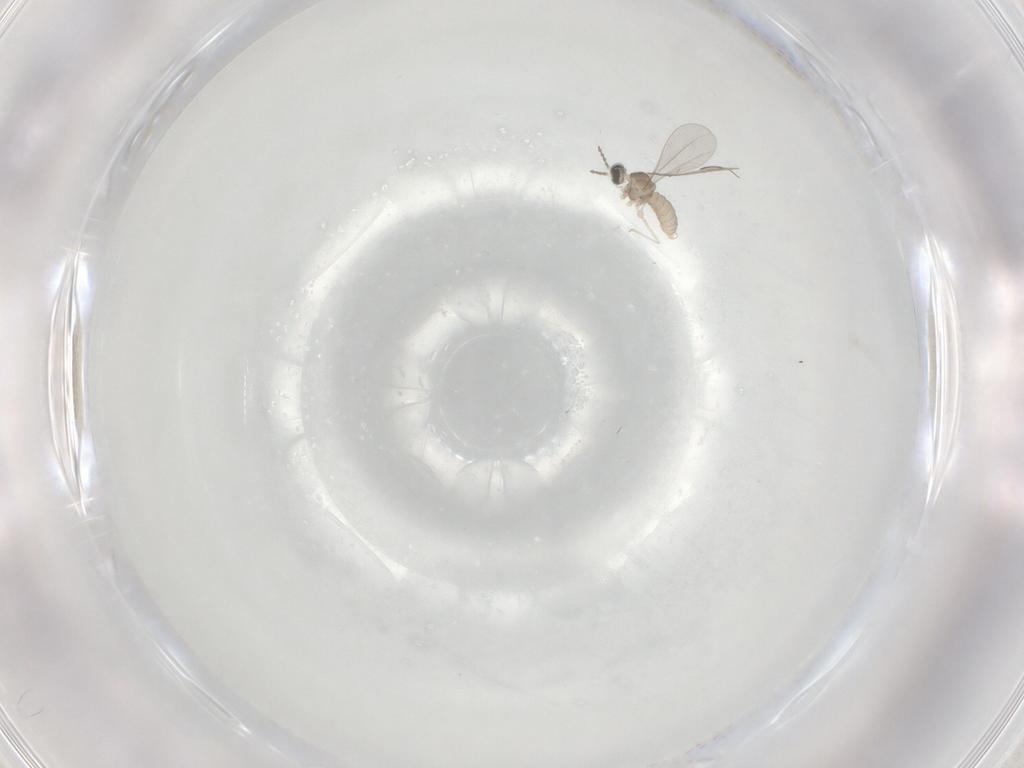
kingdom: Animalia
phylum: Arthropoda
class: Insecta
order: Diptera
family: Cecidomyiidae
